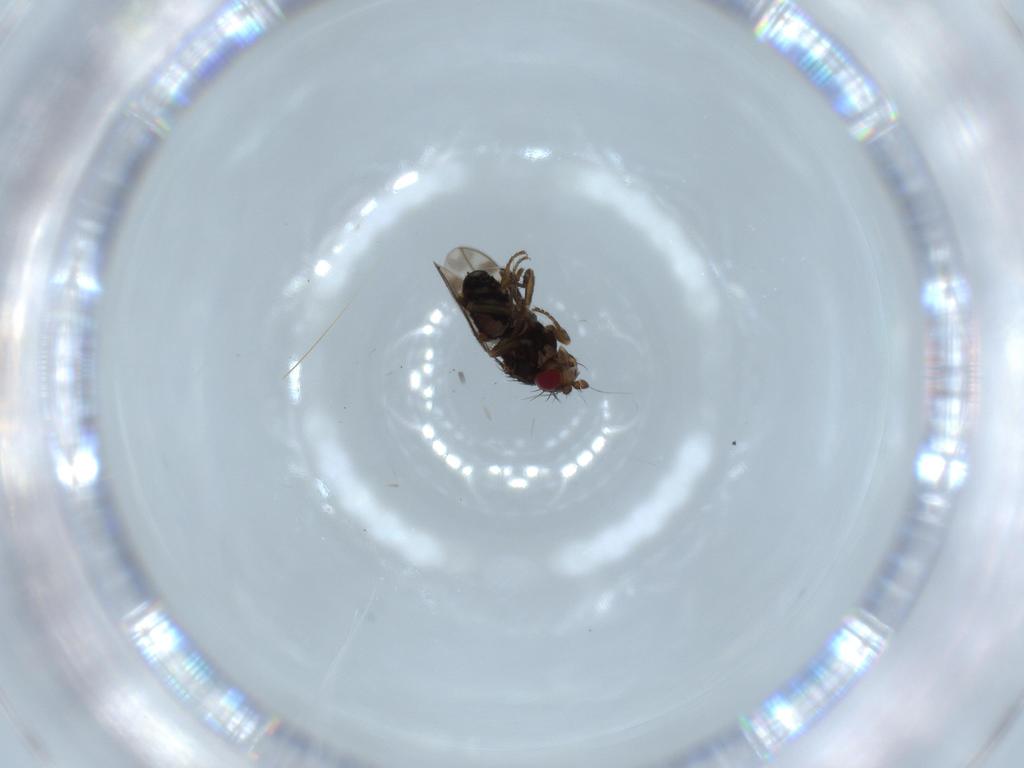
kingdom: Animalia
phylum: Arthropoda
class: Insecta
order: Diptera
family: Sphaeroceridae
